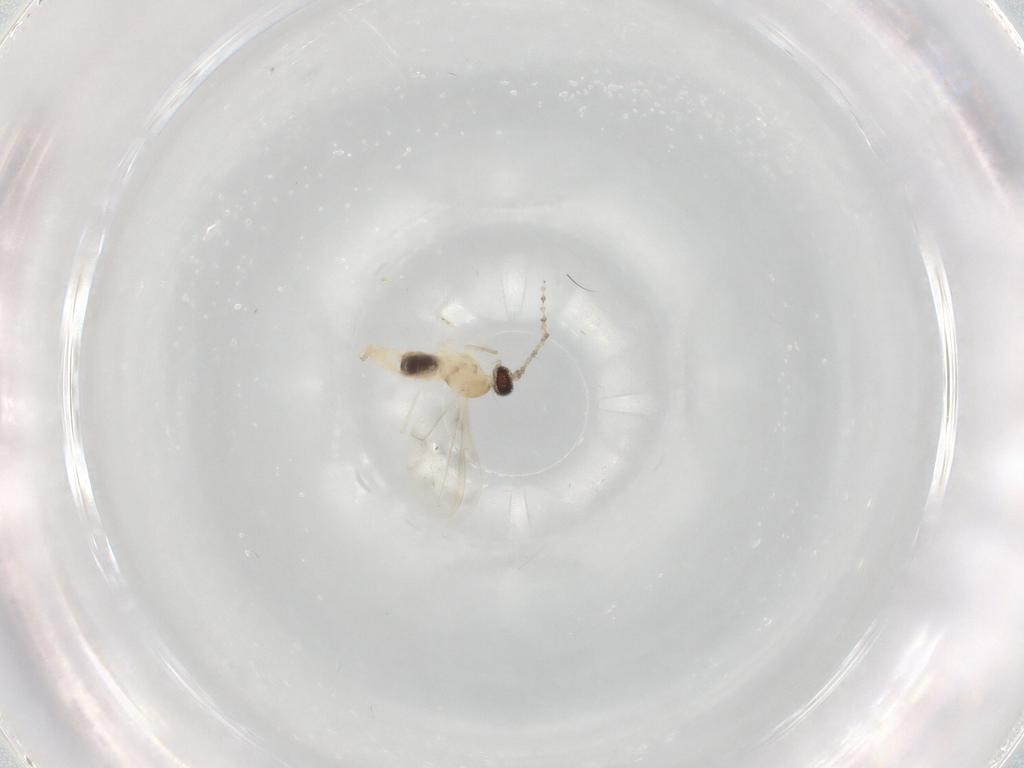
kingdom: Animalia
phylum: Arthropoda
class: Insecta
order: Diptera
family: Cecidomyiidae
